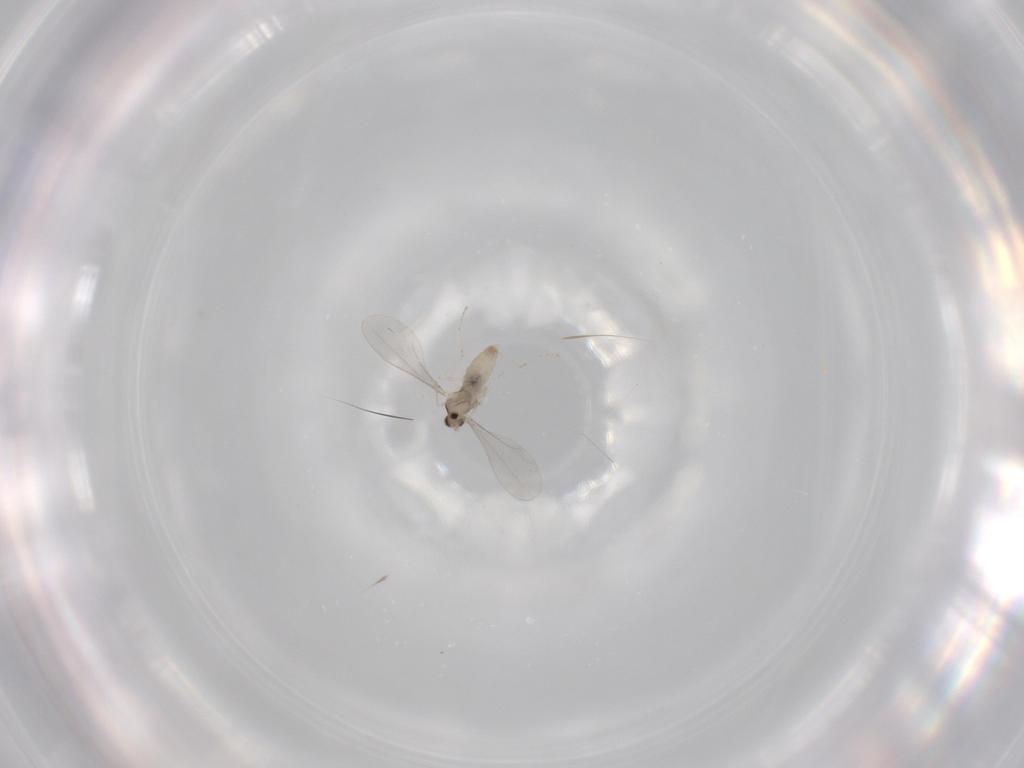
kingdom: Animalia
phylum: Arthropoda
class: Insecta
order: Diptera
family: Cecidomyiidae
